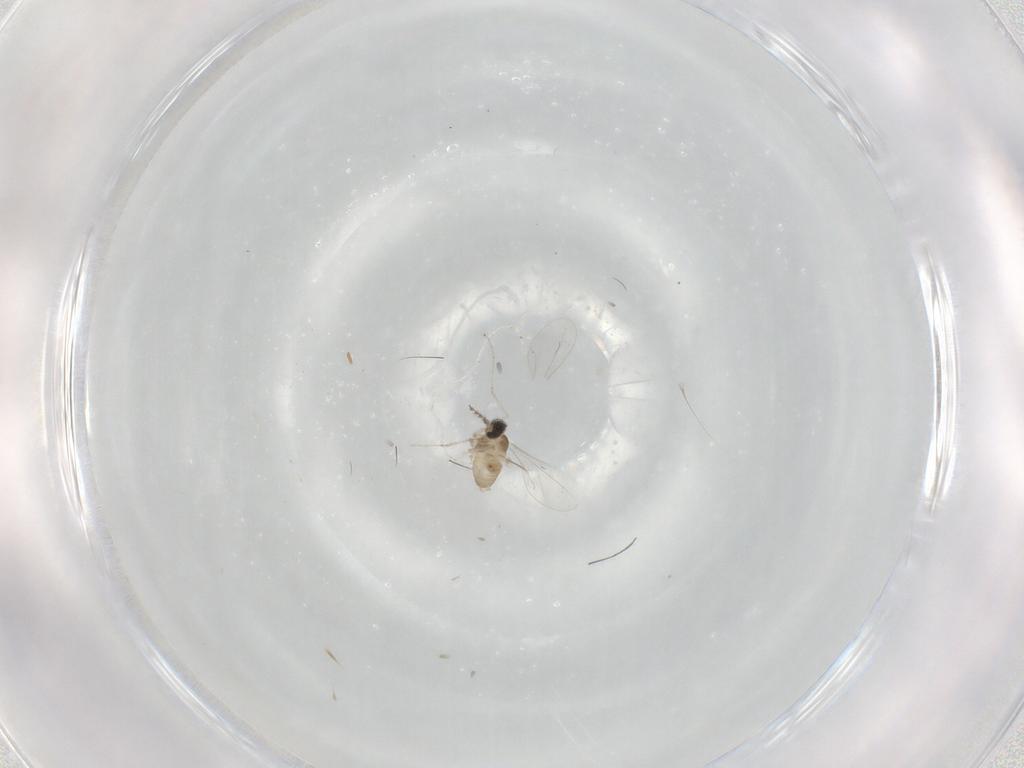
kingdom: Animalia
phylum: Arthropoda
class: Insecta
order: Diptera
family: Cecidomyiidae
